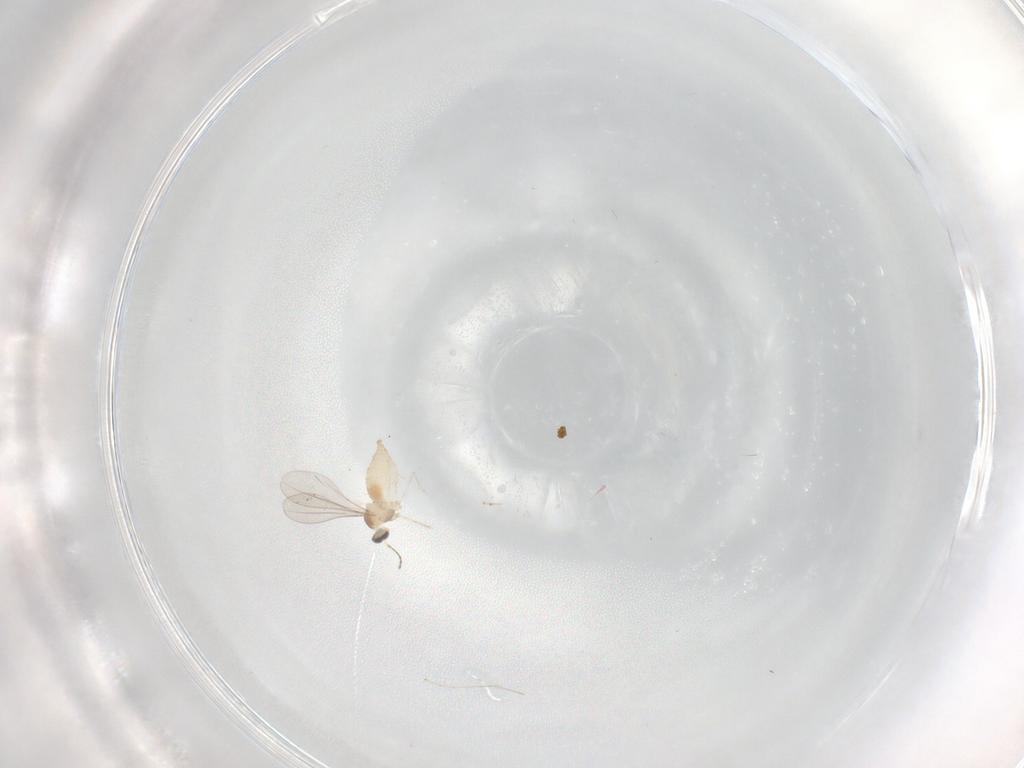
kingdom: Animalia
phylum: Arthropoda
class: Insecta
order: Diptera
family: Cecidomyiidae
